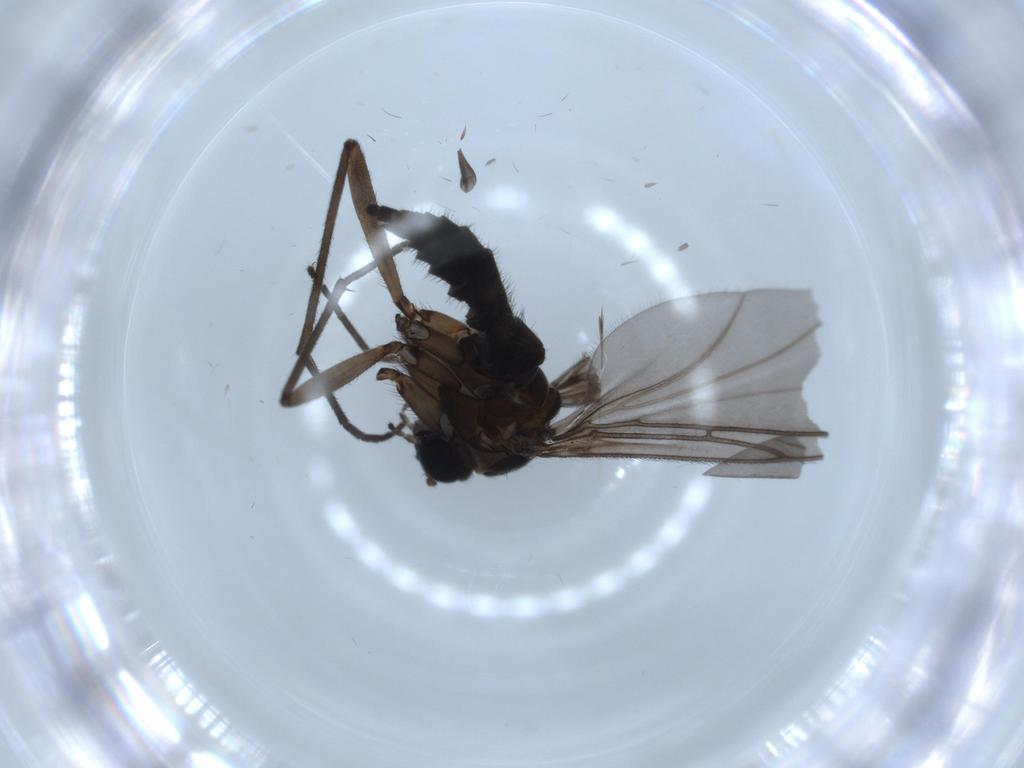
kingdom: Animalia
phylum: Arthropoda
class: Insecta
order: Diptera
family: Sciaridae
